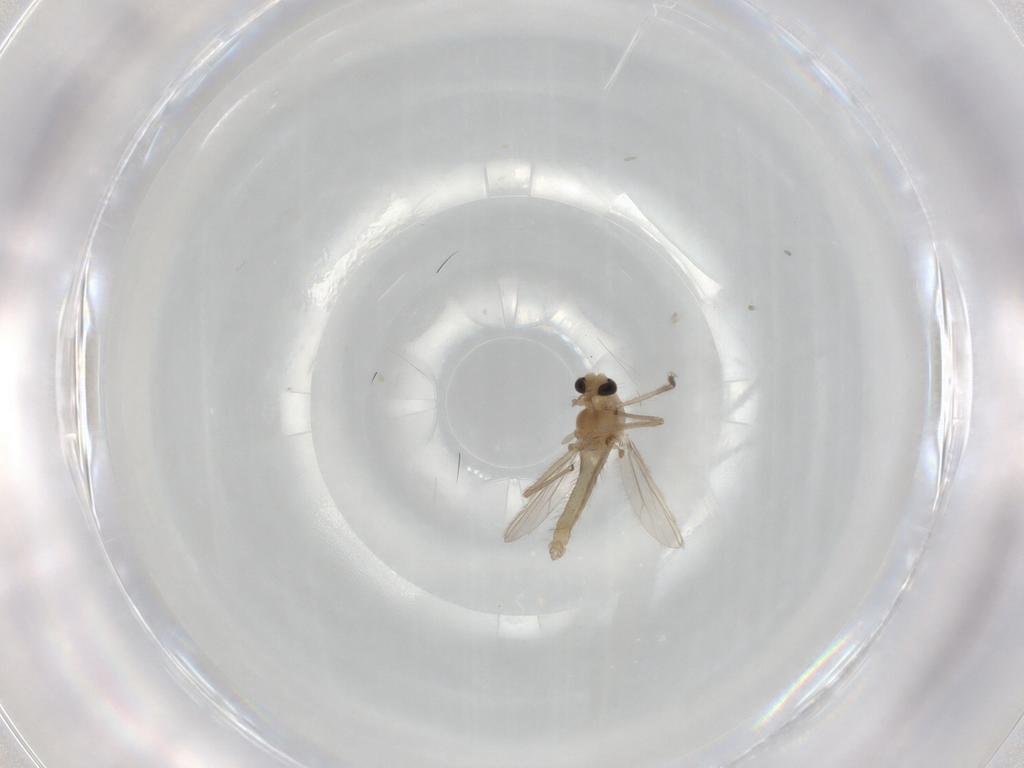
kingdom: Animalia
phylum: Arthropoda
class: Insecta
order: Diptera
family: Chironomidae
